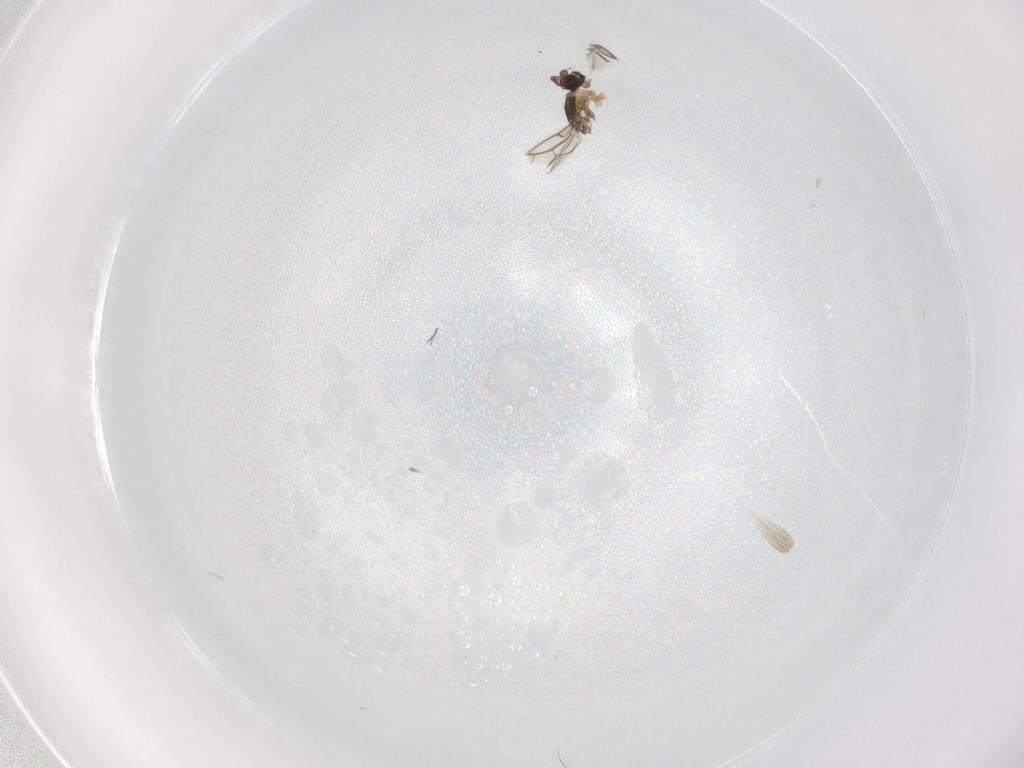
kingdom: Animalia
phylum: Arthropoda
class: Insecta
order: Diptera
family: Phoridae
